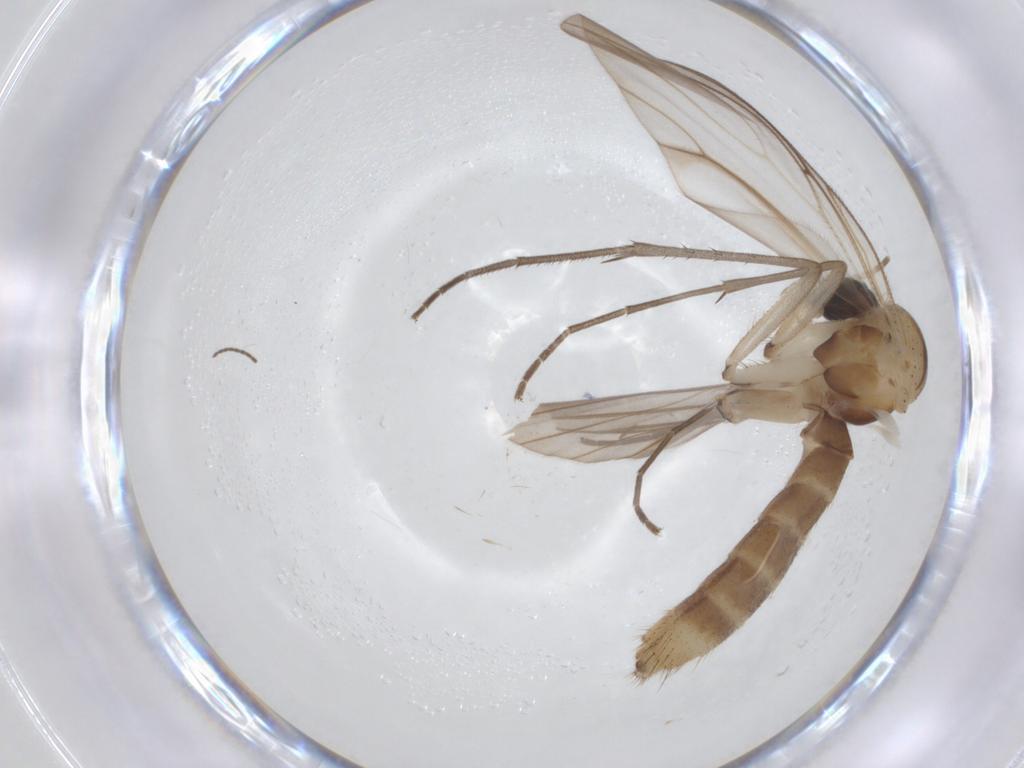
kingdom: Animalia
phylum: Arthropoda
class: Insecta
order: Diptera
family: Mycetophilidae
